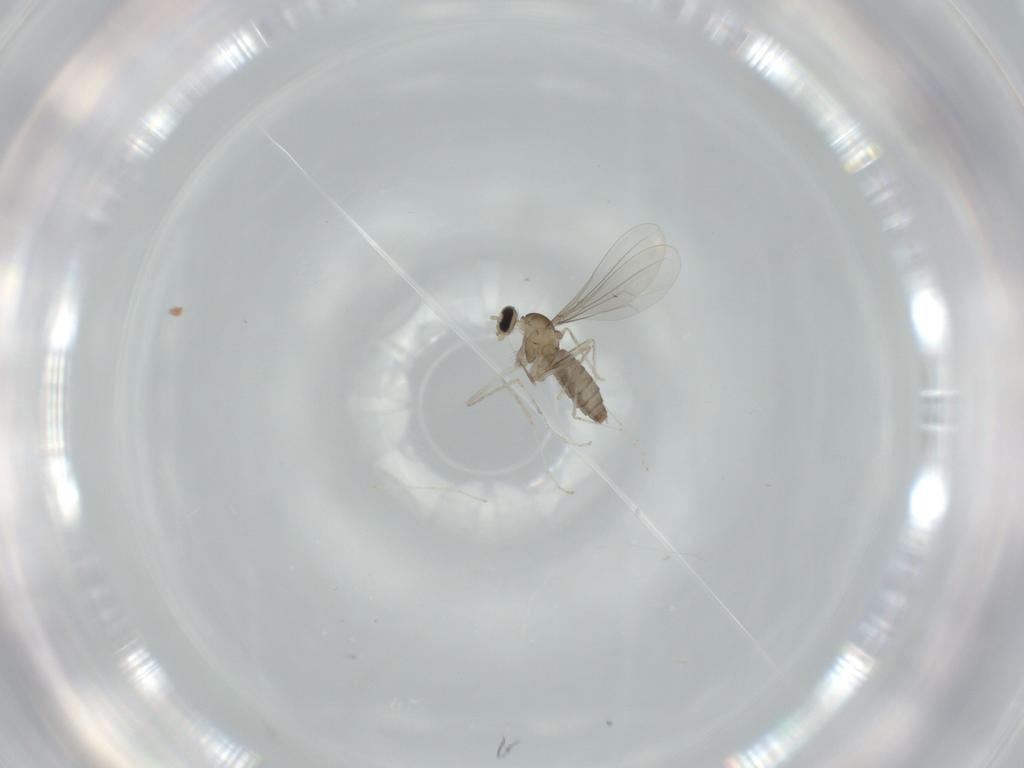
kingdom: Animalia
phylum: Arthropoda
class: Insecta
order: Diptera
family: Cecidomyiidae
